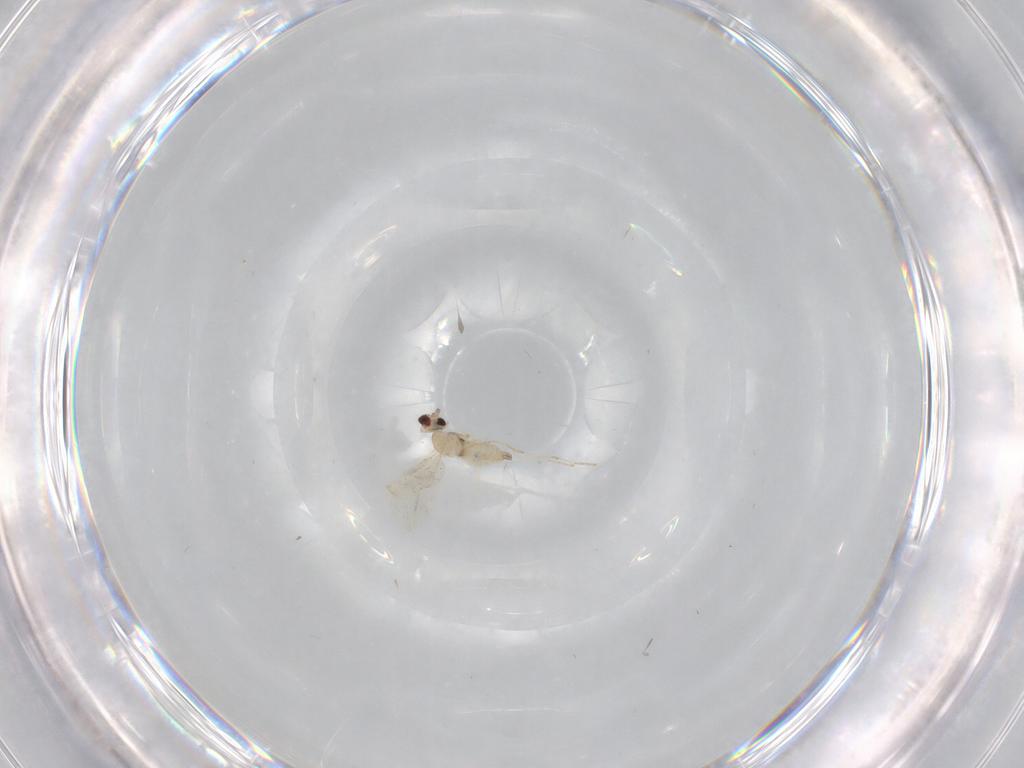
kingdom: Animalia
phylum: Arthropoda
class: Insecta
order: Diptera
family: Cecidomyiidae
